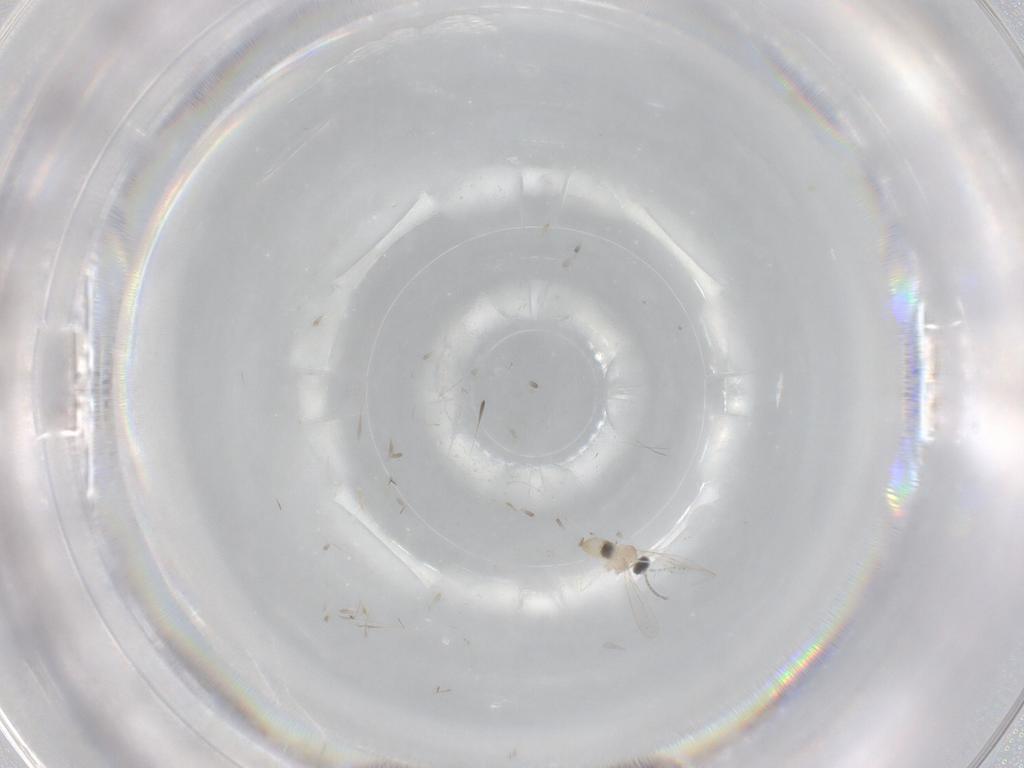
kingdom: Animalia
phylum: Arthropoda
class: Insecta
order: Diptera
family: Cecidomyiidae
